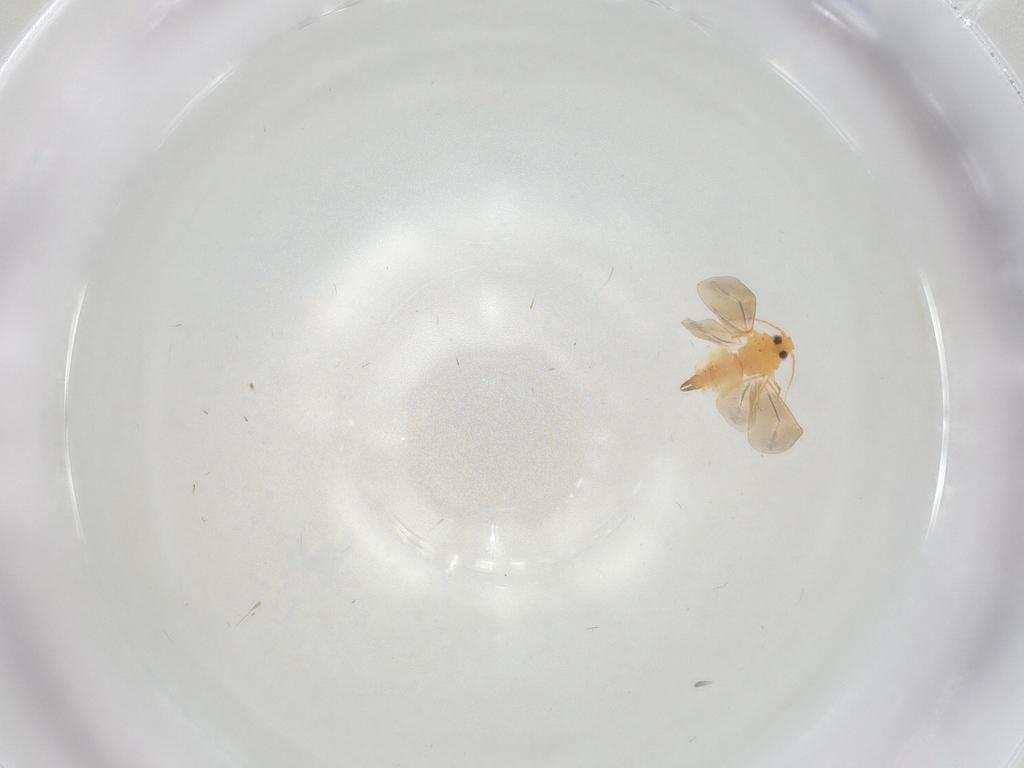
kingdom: Animalia
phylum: Arthropoda
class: Insecta
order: Hemiptera
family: Aleyrodidae
